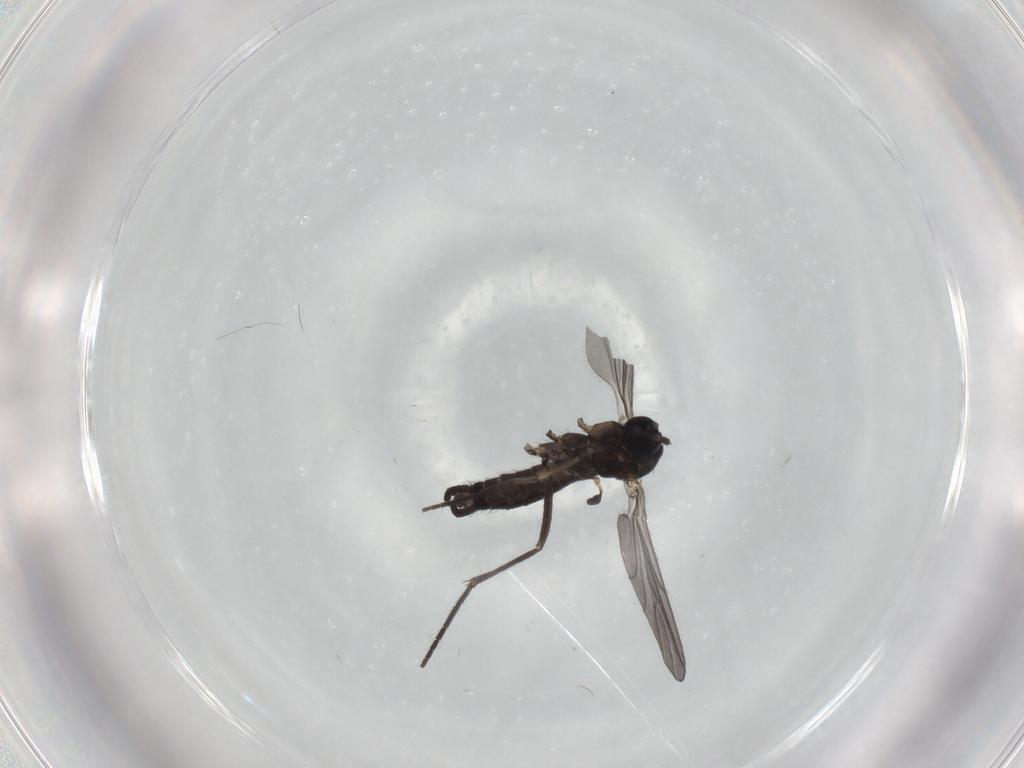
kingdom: Animalia
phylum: Arthropoda
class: Insecta
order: Diptera
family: Sciaridae
